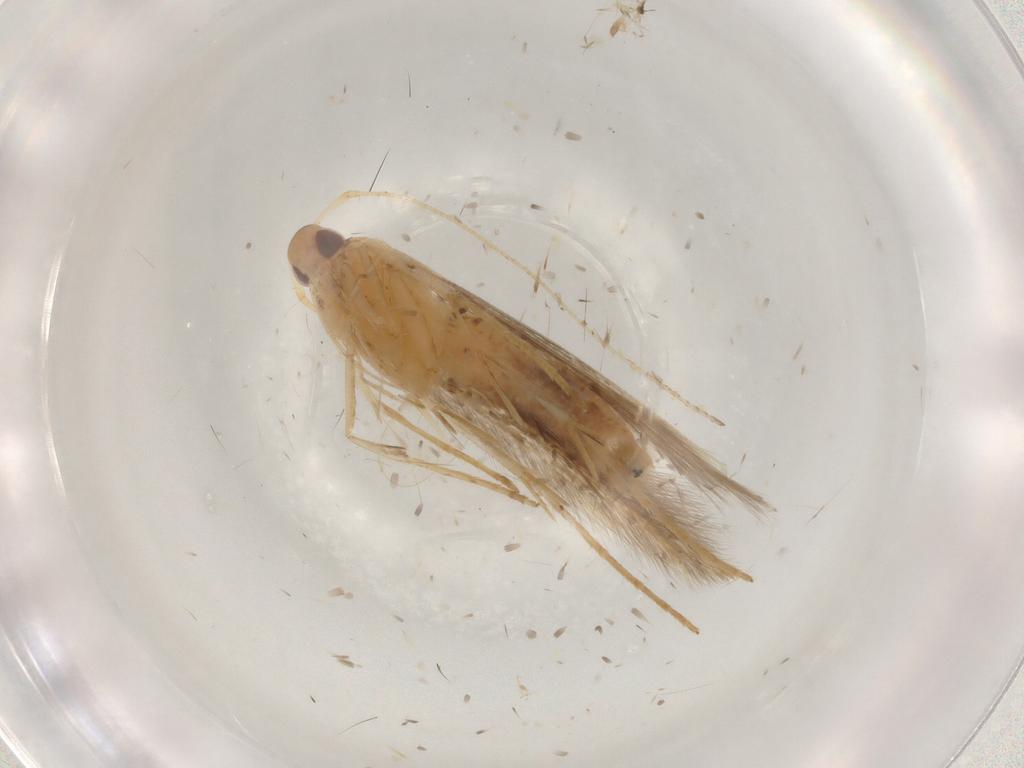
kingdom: Animalia
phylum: Arthropoda
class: Insecta
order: Lepidoptera
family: Cosmopterigidae
